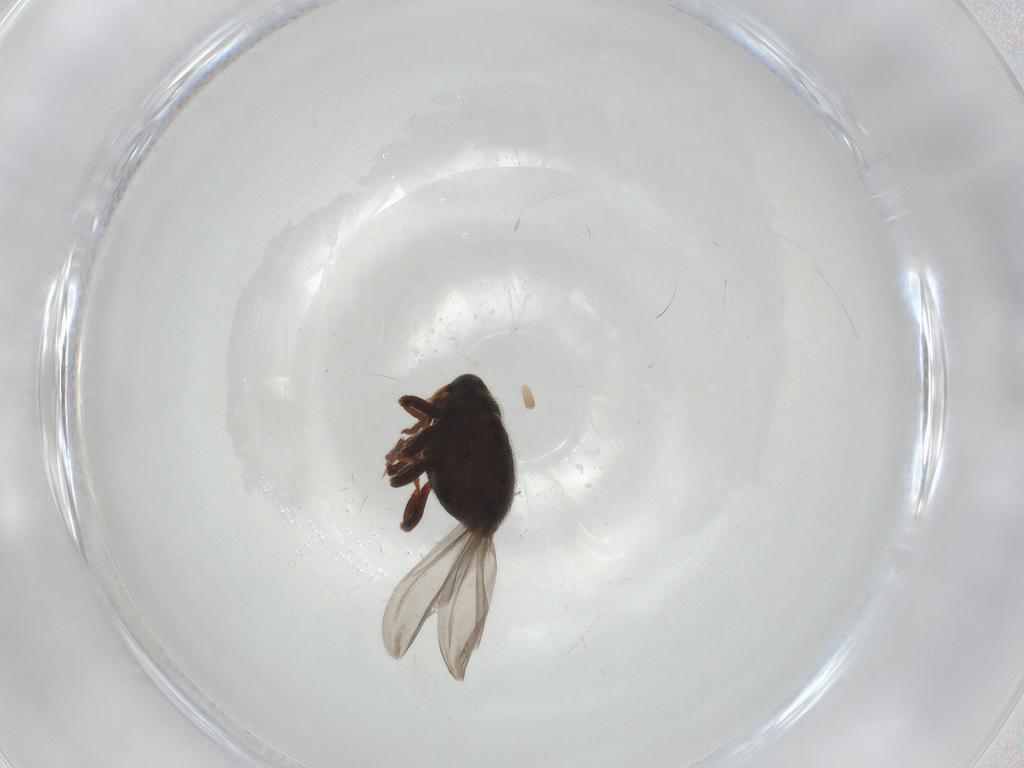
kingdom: Animalia
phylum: Arthropoda
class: Insecta
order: Coleoptera
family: Curculionidae
